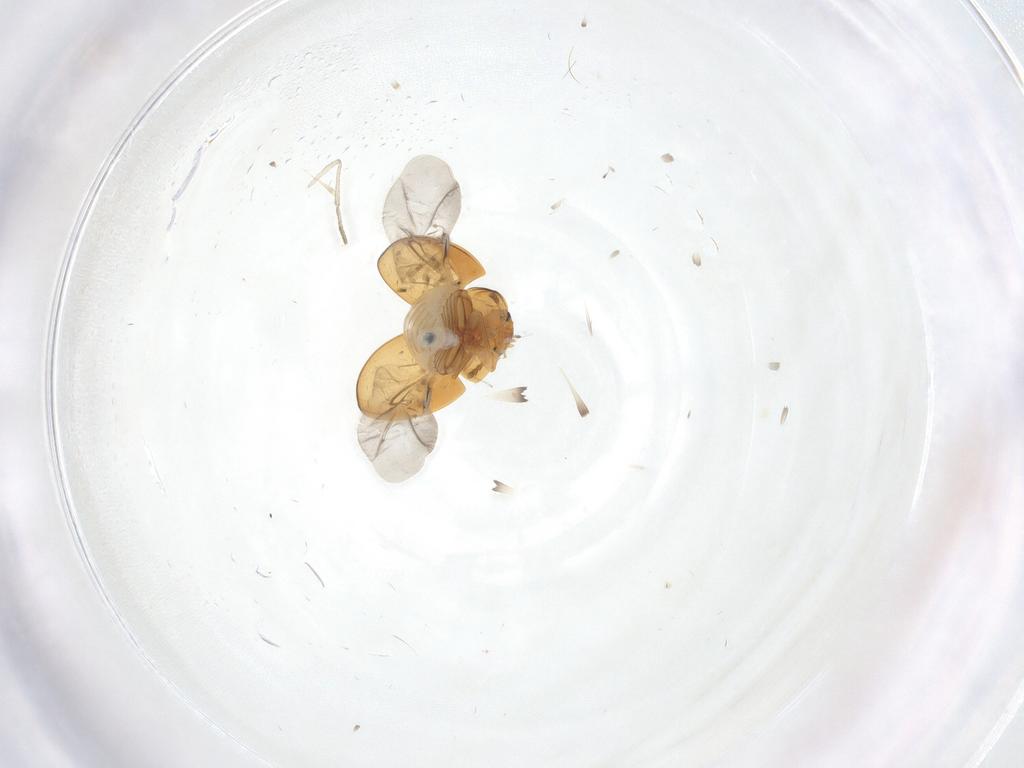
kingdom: Animalia
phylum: Arthropoda
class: Insecta
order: Coleoptera
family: Phalacridae
